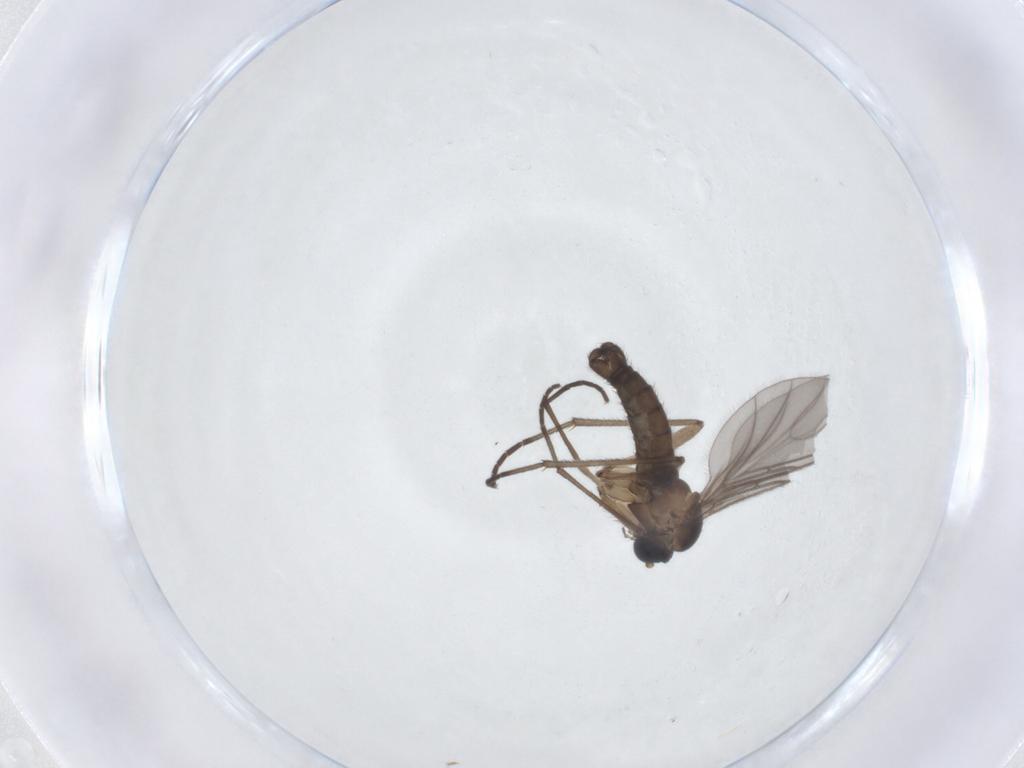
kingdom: Animalia
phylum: Arthropoda
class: Insecta
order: Diptera
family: Sciaridae
